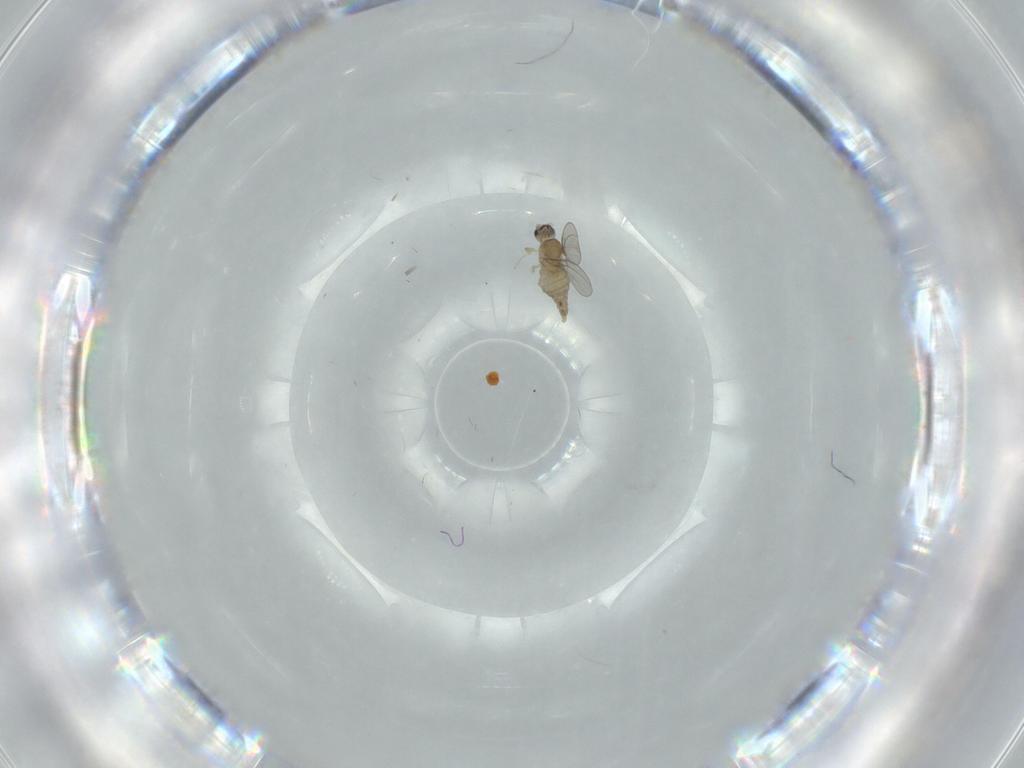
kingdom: Animalia
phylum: Arthropoda
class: Insecta
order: Diptera
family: Cecidomyiidae
